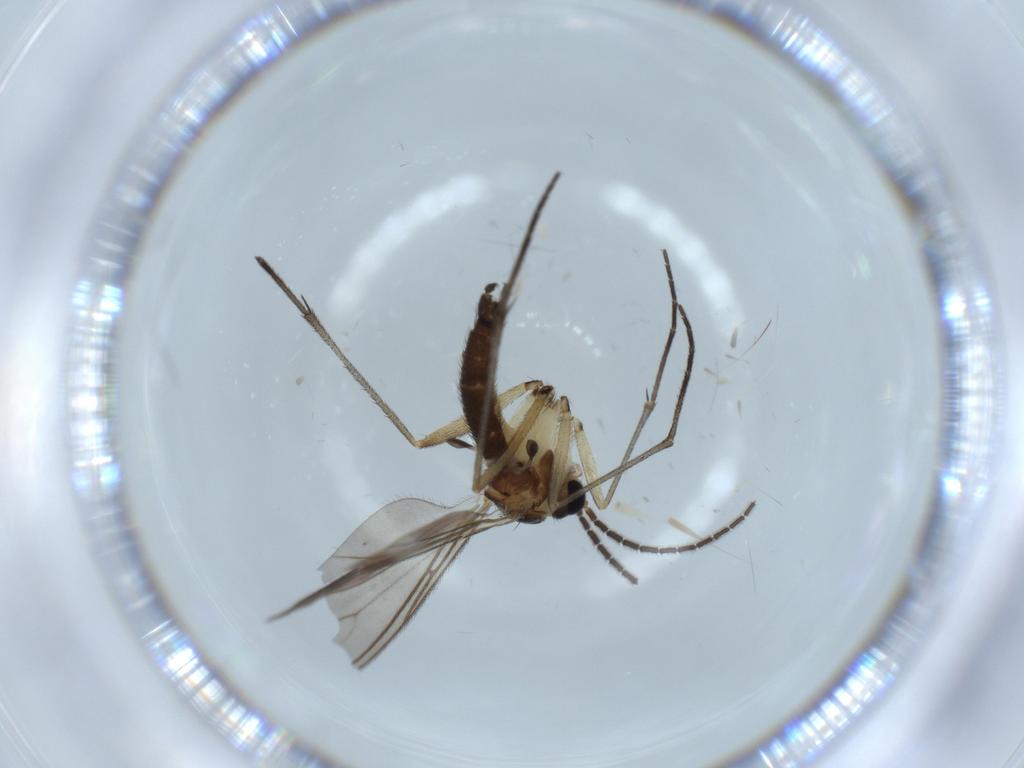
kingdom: Animalia
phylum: Arthropoda
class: Insecta
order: Diptera
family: Sciaridae
